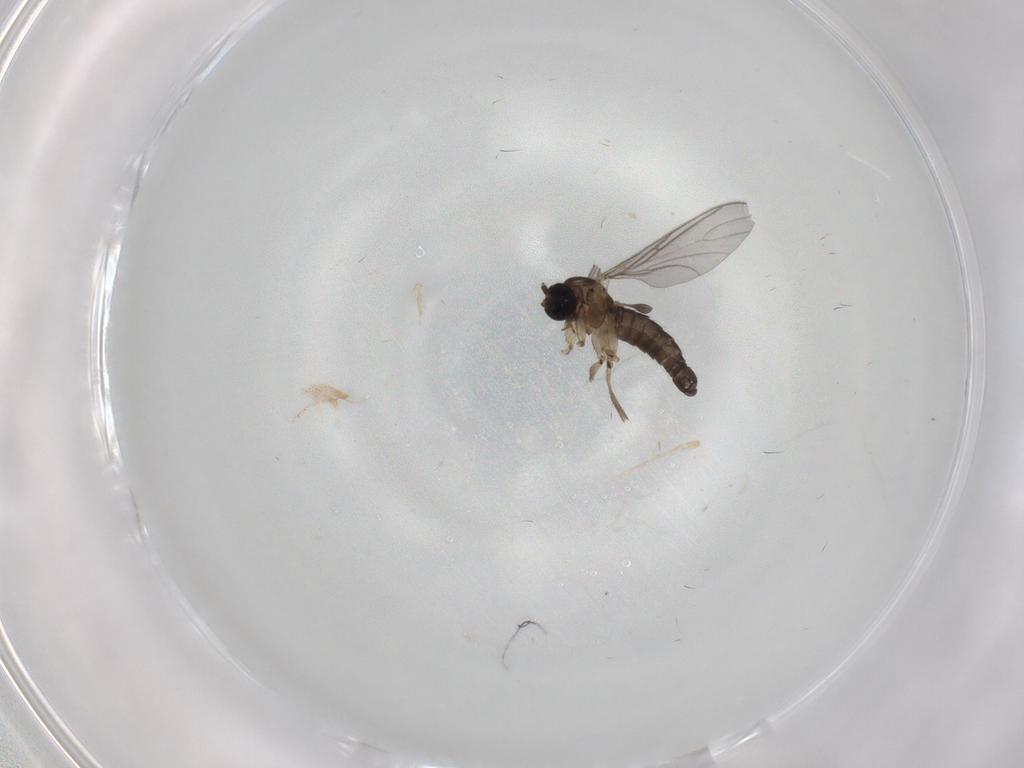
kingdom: Animalia
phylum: Arthropoda
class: Insecta
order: Diptera
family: Sciaridae
